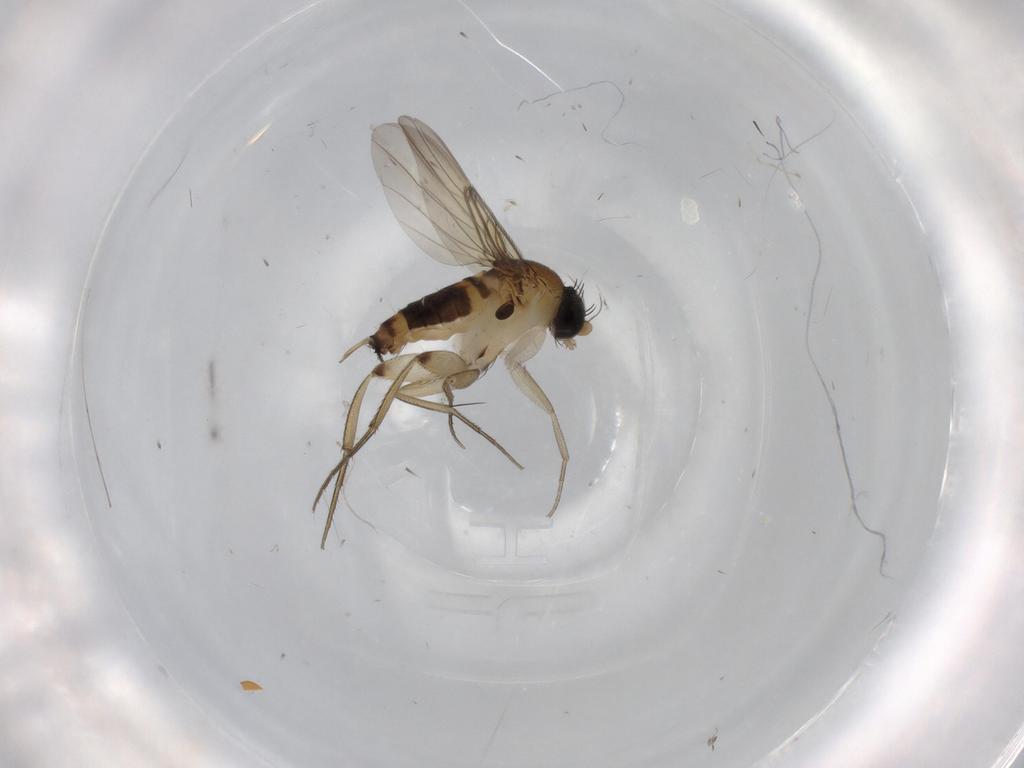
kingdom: Animalia
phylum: Arthropoda
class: Insecta
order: Diptera
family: Phoridae
